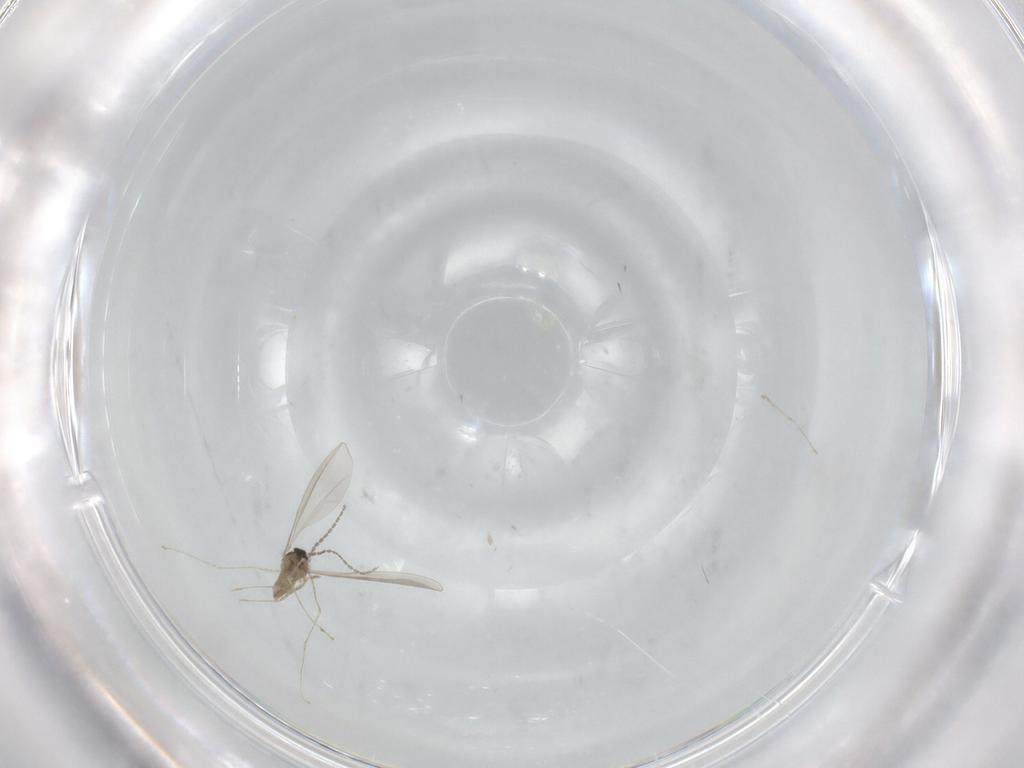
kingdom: Animalia
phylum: Arthropoda
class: Insecta
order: Diptera
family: Cecidomyiidae
